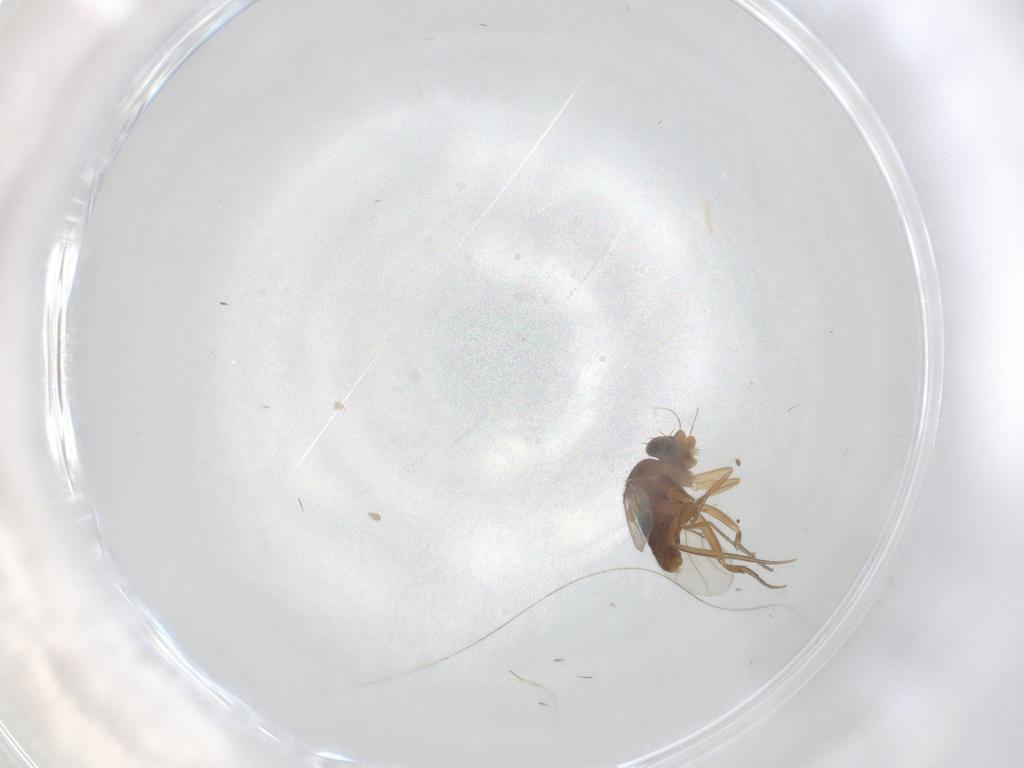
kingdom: Animalia
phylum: Arthropoda
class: Insecta
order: Diptera
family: Phoridae
